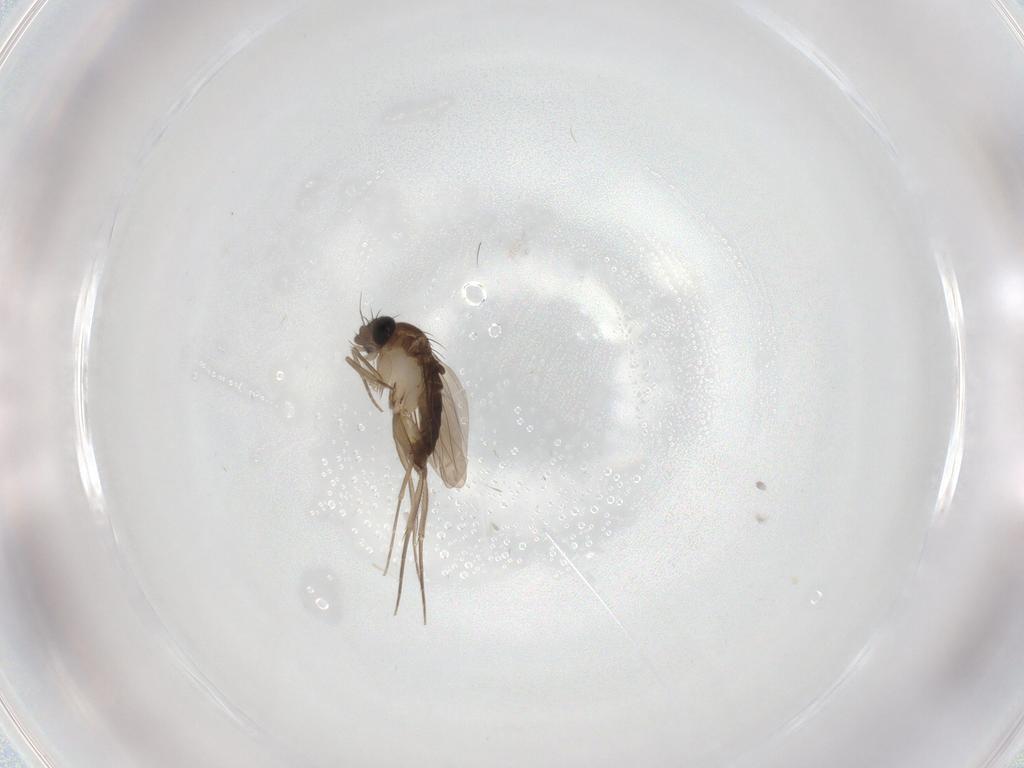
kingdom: Animalia
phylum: Arthropoda
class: Insecta
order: Diptera
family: Phoridae
